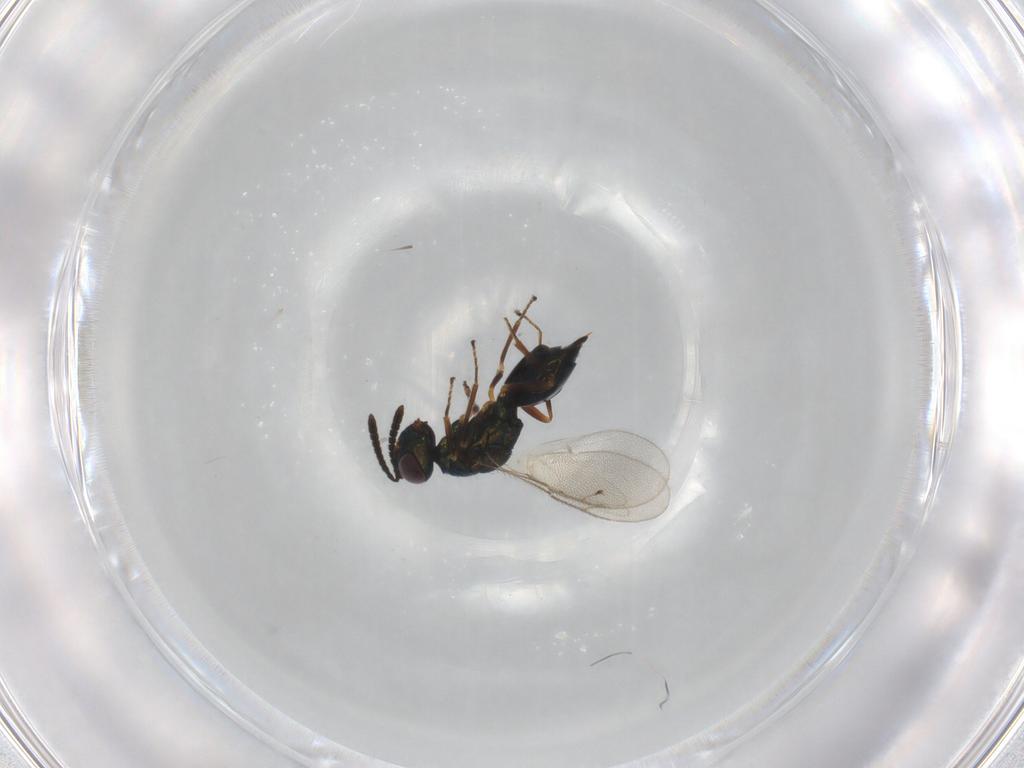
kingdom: Animalia
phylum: Arthropoda
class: Insecta
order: Hymenoptera
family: Pteromalidae
